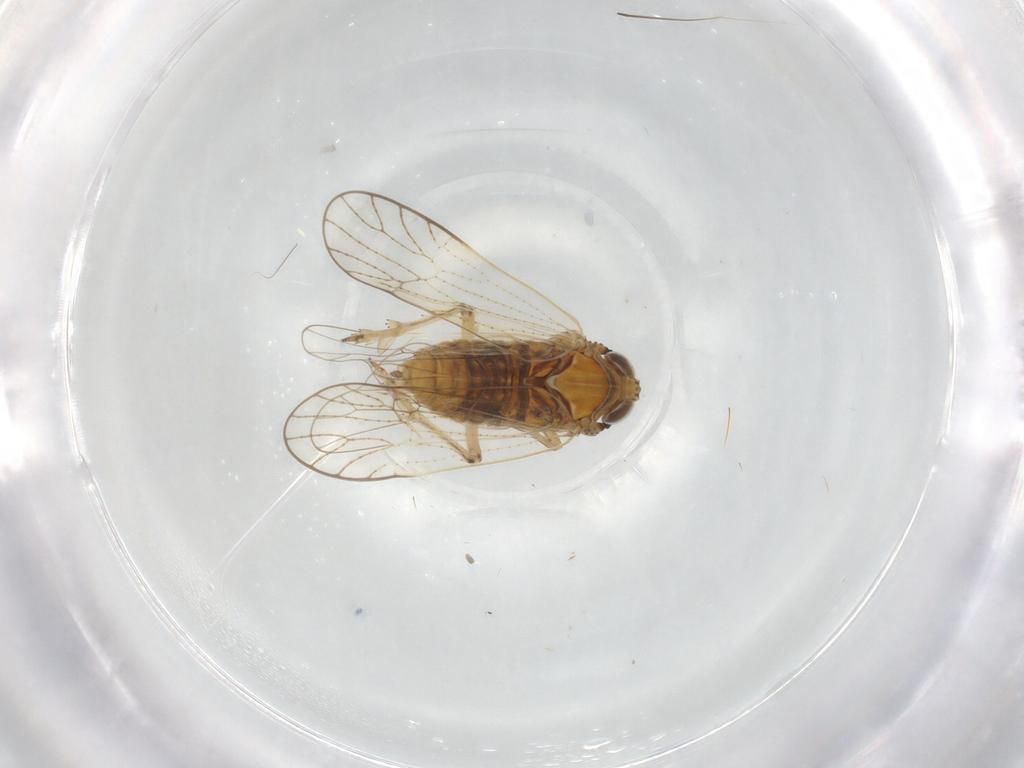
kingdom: Animalia
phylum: Arthropoda
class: Insecta
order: Hemiptera
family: Delphacidae
